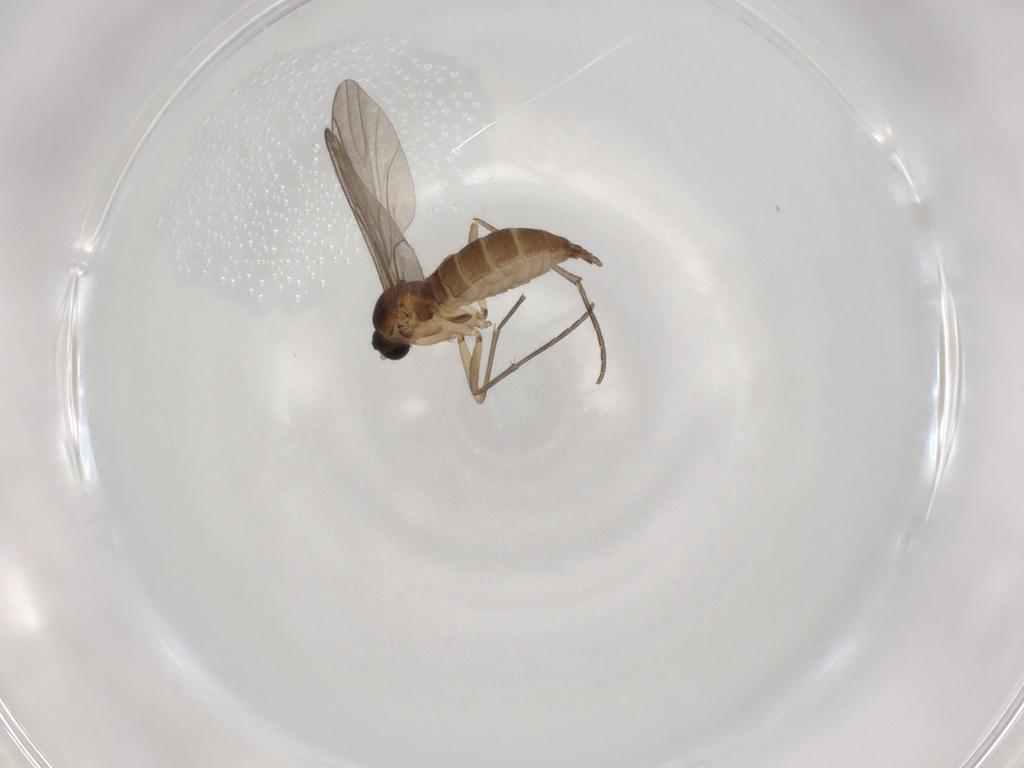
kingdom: Animalia
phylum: Arthropoda
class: Insecta
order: Diptera
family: Sciaridae
